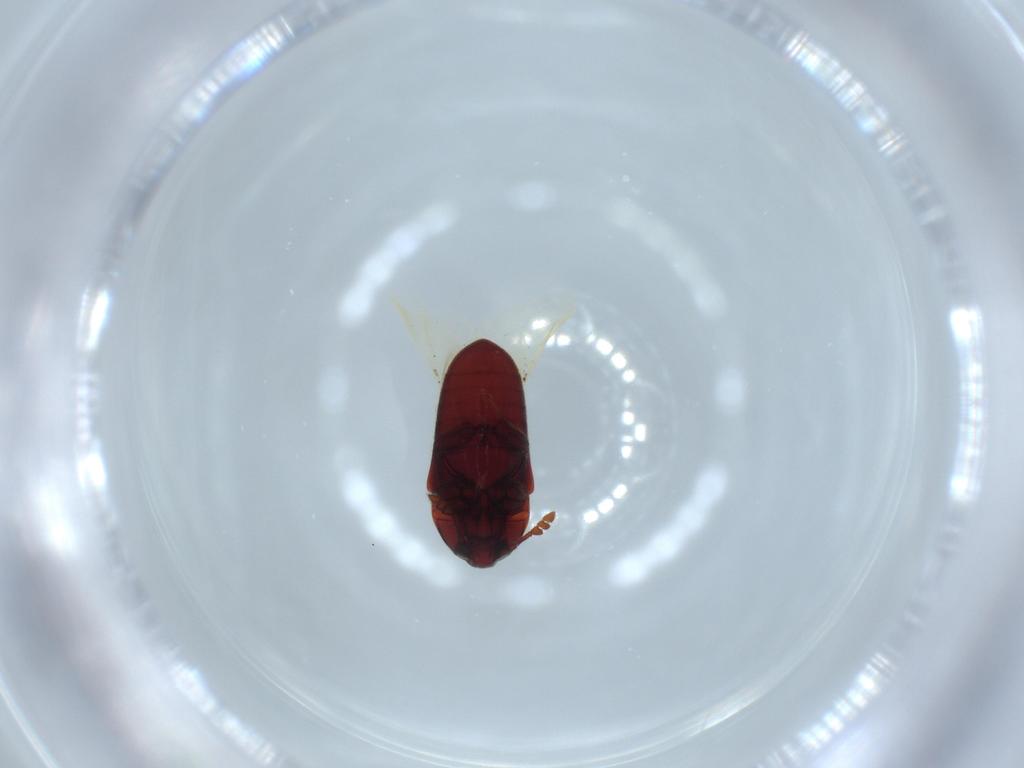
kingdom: Animalia
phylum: Arthropoda
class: Insecta
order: Coleoptera
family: Throscidae
